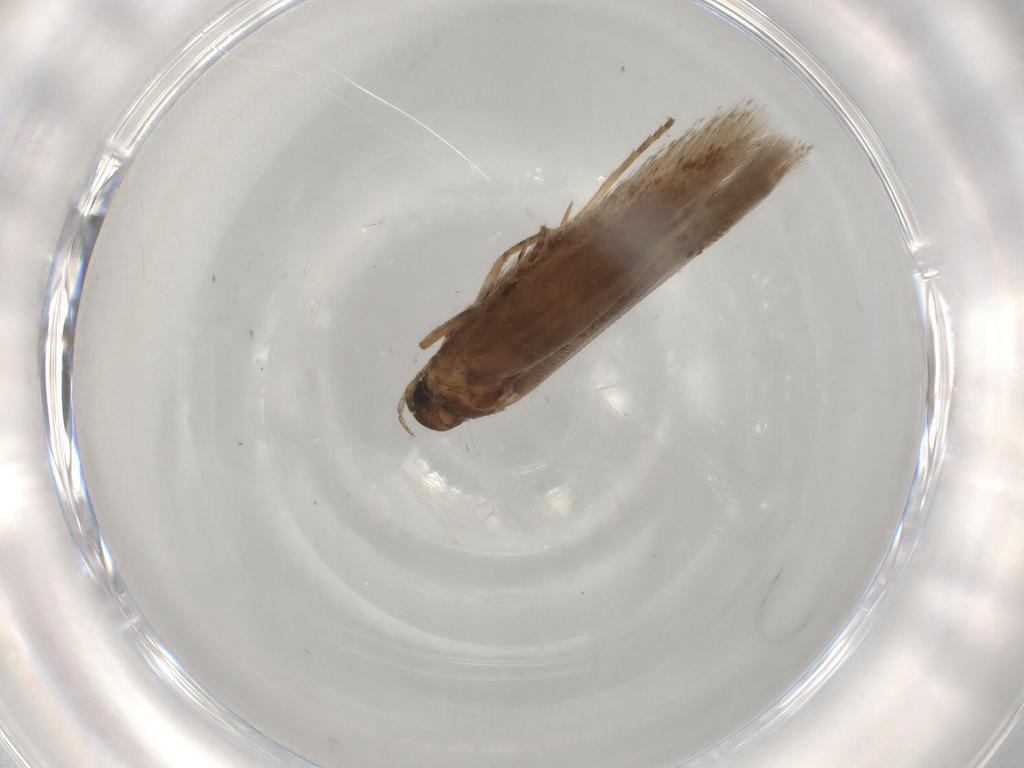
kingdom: Animalia
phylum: Arthropoda
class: Insecta
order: Lepidoptera
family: Gelechiidae
